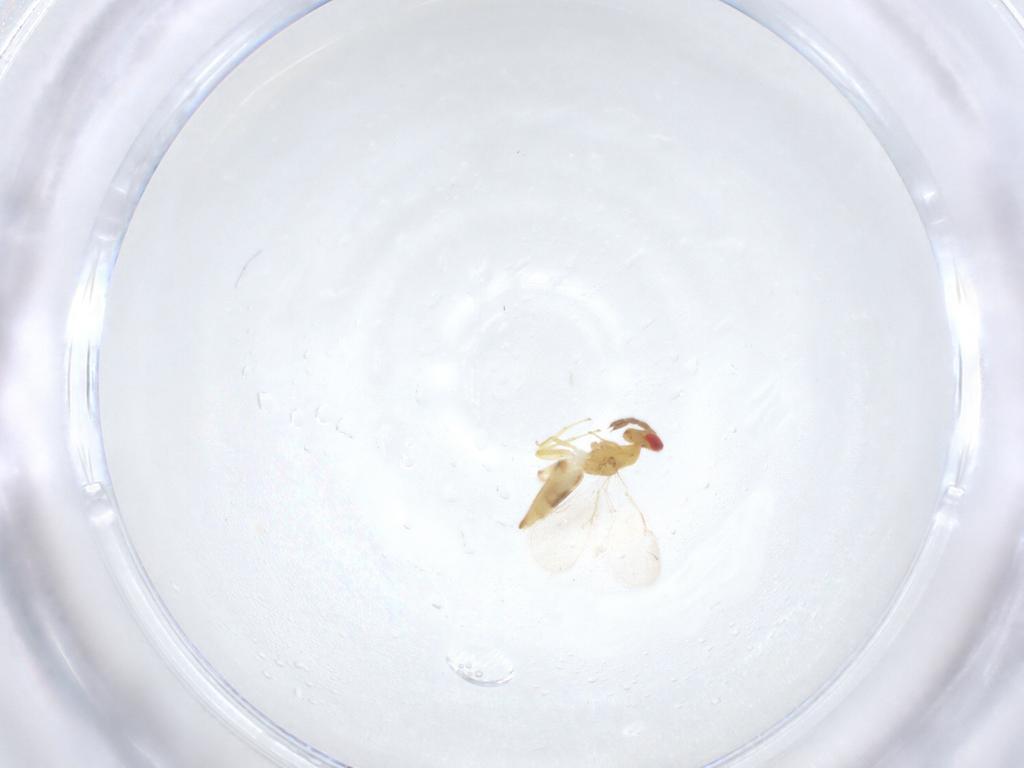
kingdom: Animalia
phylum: Arthropoda
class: Insecta
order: Hymenoptera
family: Eulophidae
